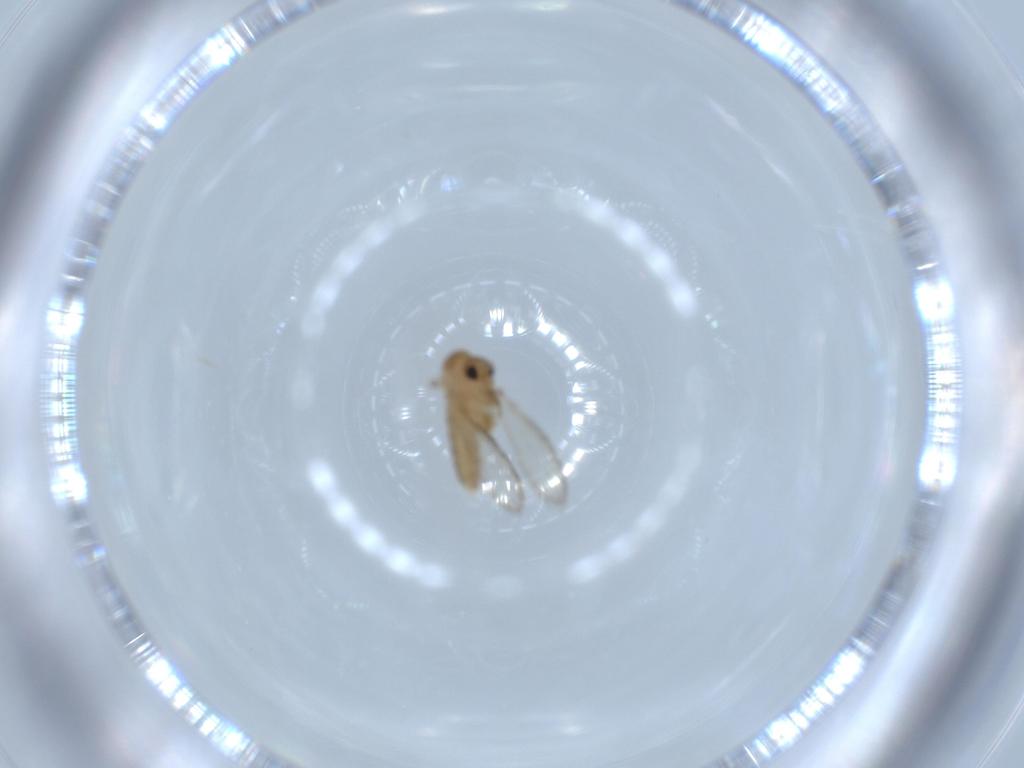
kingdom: Animalia
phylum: Arthropoda
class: Insecta
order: Diptera
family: Psychodidae
